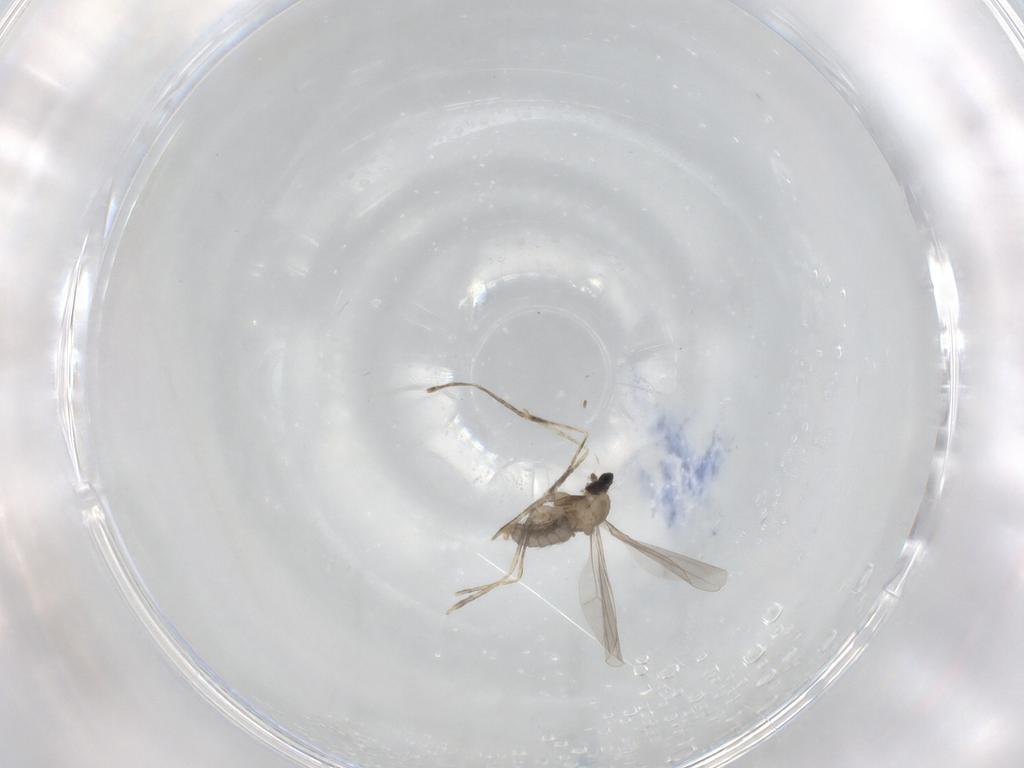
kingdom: Animalia
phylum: Arthropoda
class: Insecta
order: Diptera
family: Cecidomyiidae
